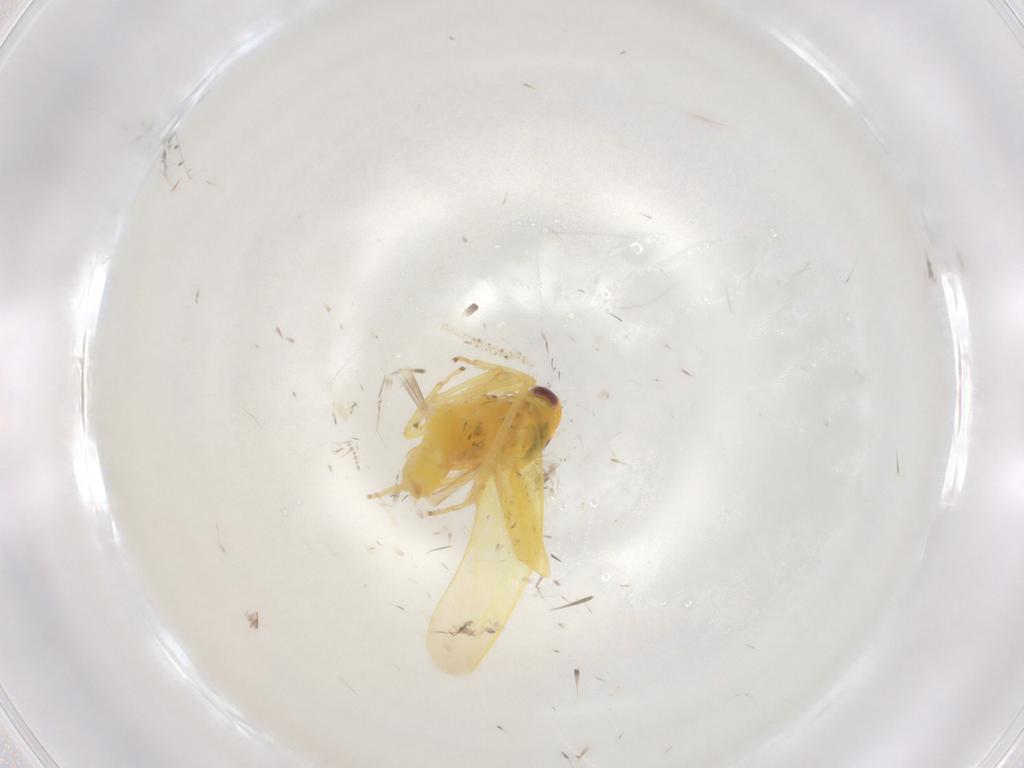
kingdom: Animalia
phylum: Arthropoda
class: Insecta
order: Hemiptera
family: Cicadellidae
